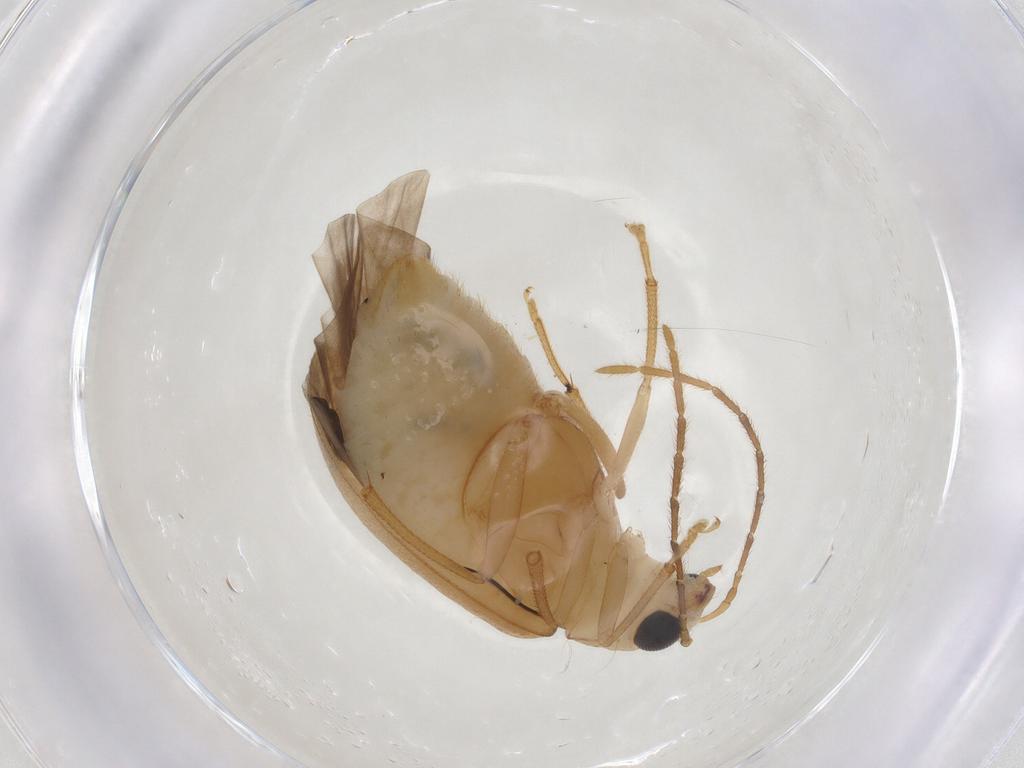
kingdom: Animalia
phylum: Arthropoda
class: Insecta
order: Coleoptera
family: Chrysomelidae
